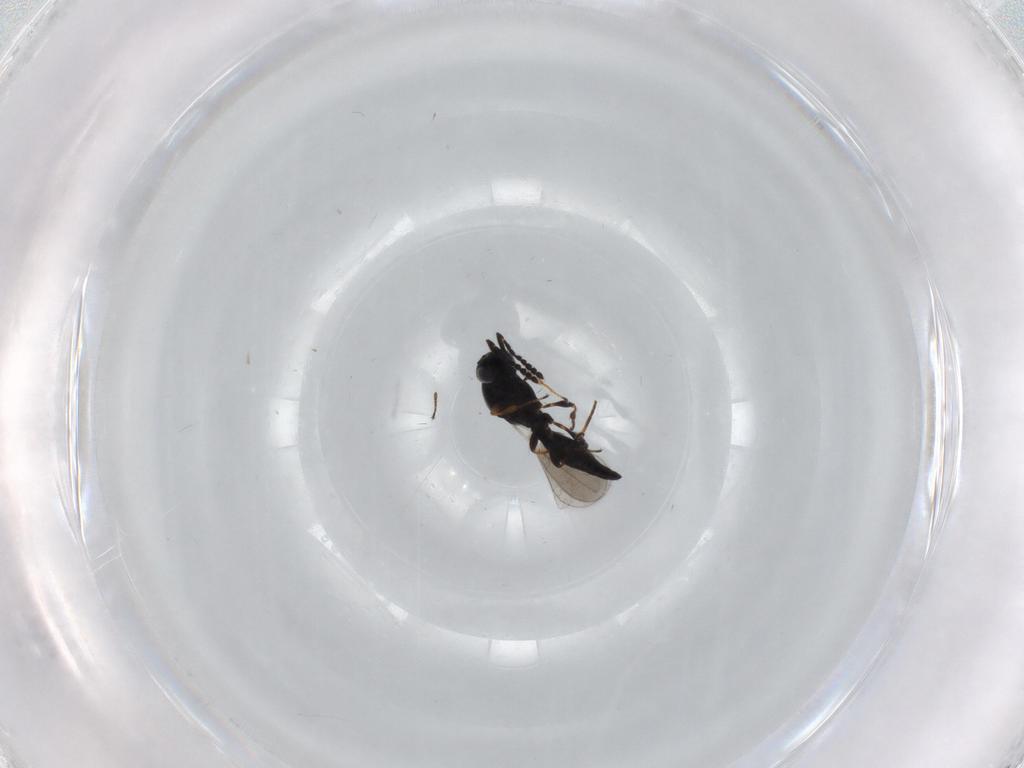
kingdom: Animalia
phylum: Arthropoda
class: Insecta
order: Hymenoptera
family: Platygastridae
